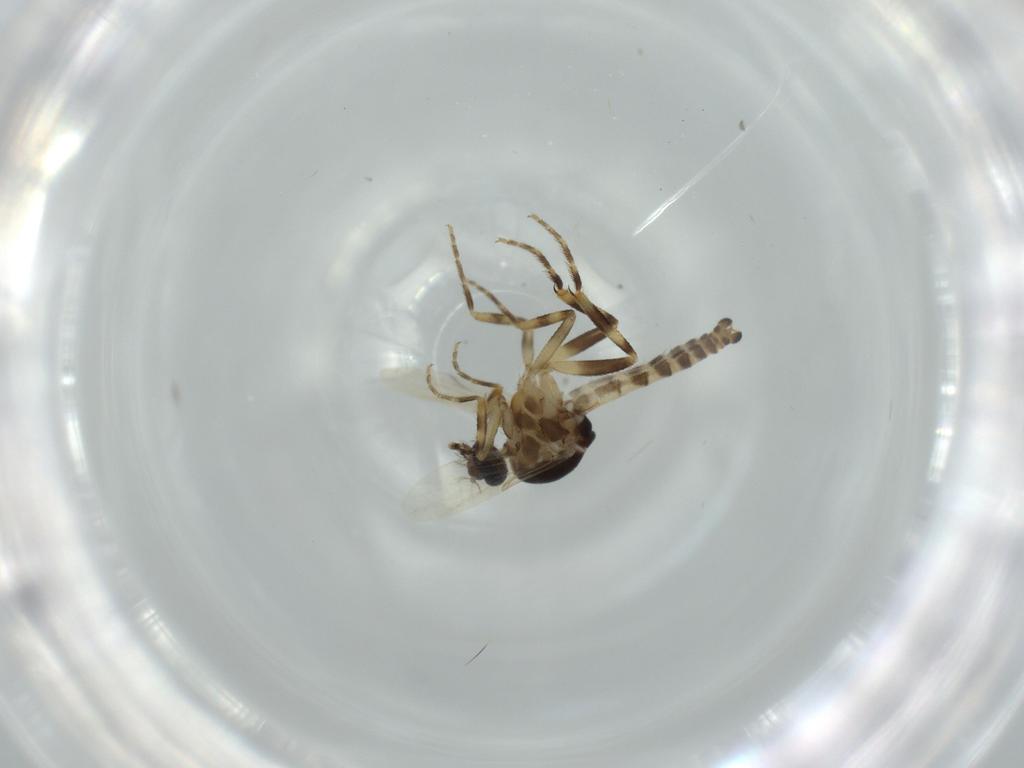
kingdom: Animalia
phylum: Arthropoda
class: Insecta
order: Diptera
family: Ceratopogonidae
